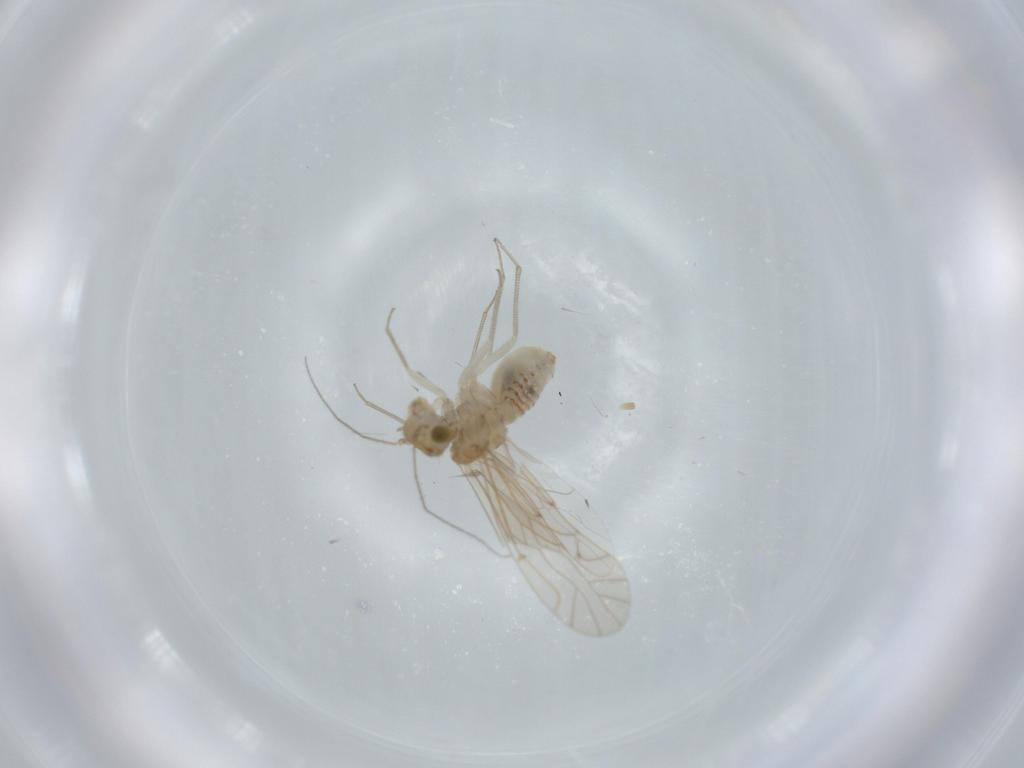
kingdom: Animalia
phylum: Arthropoda
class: Insecta
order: Psocodea
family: Lachesillidae
